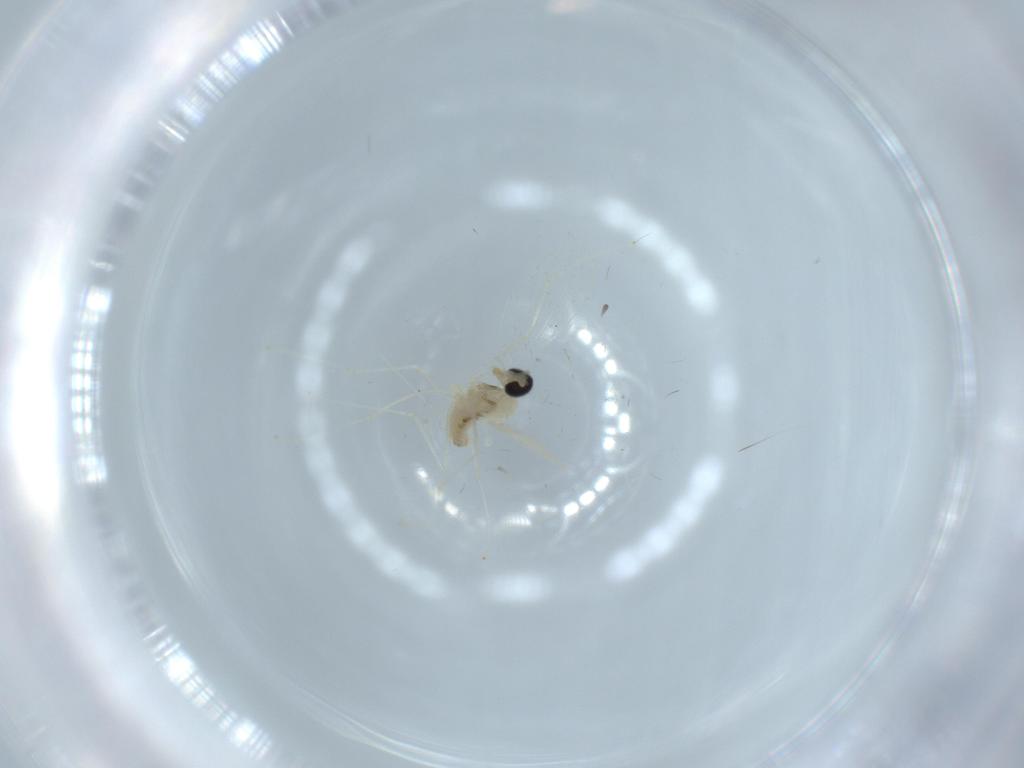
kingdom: Animalia
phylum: Arthropoda
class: Insecta
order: Diptera
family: Cecidomyiidae
